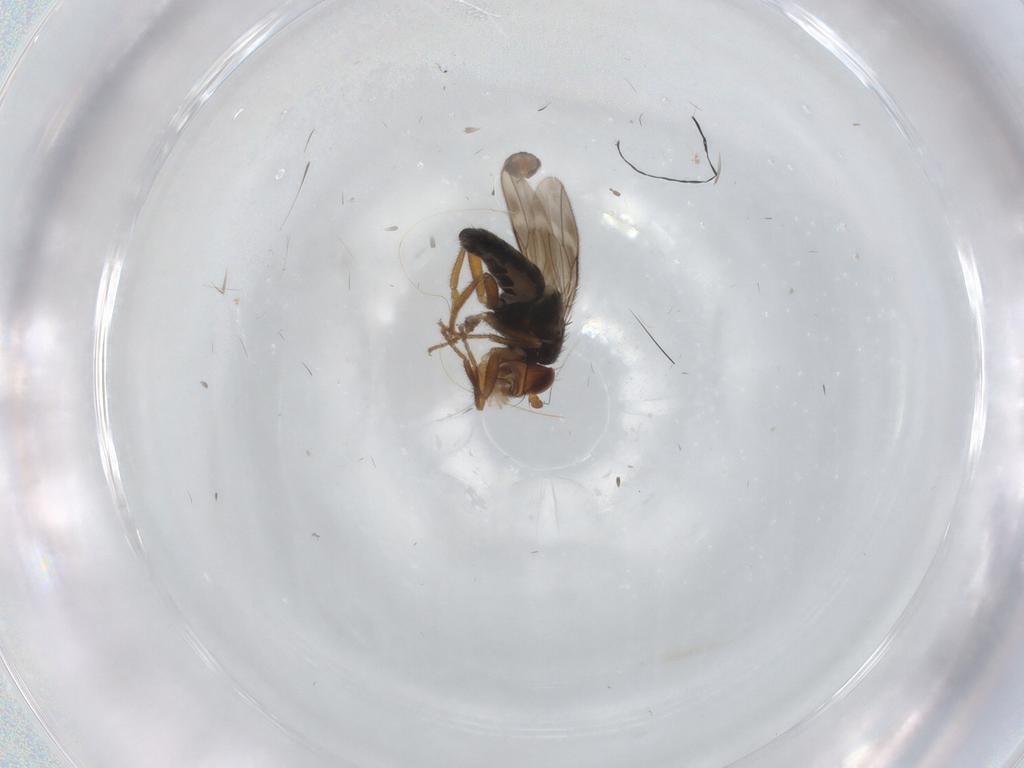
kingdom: Animalia
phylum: Arthropoda
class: Insecta
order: Diptera
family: Sphaeroceridae
